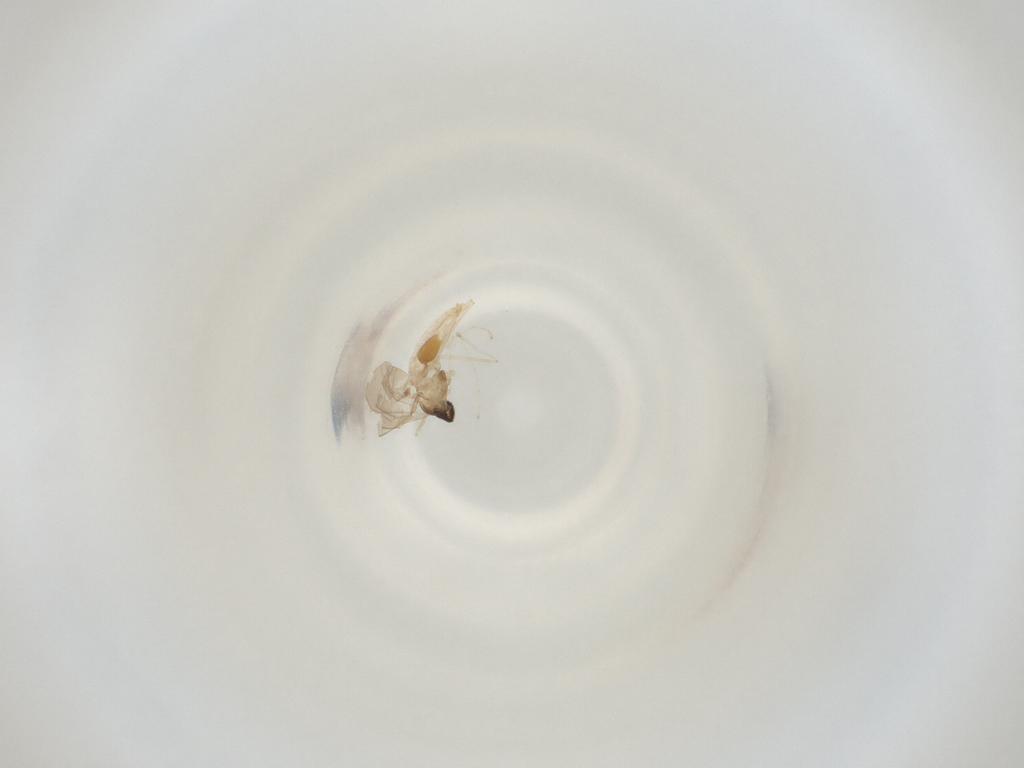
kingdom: Animalia
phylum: Arthropoda
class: Insecta
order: Diptera
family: Cecidomyiidae
